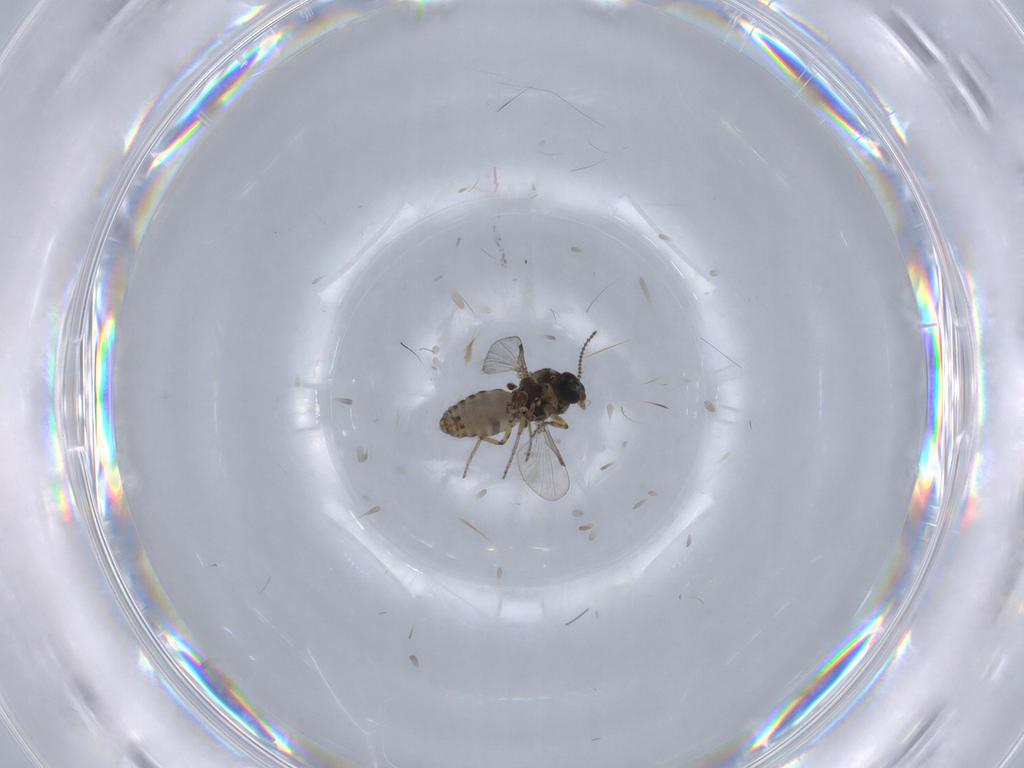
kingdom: Animalia
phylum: Arthropoda
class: Insecta
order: Diptera
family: Ceratopogonidae
